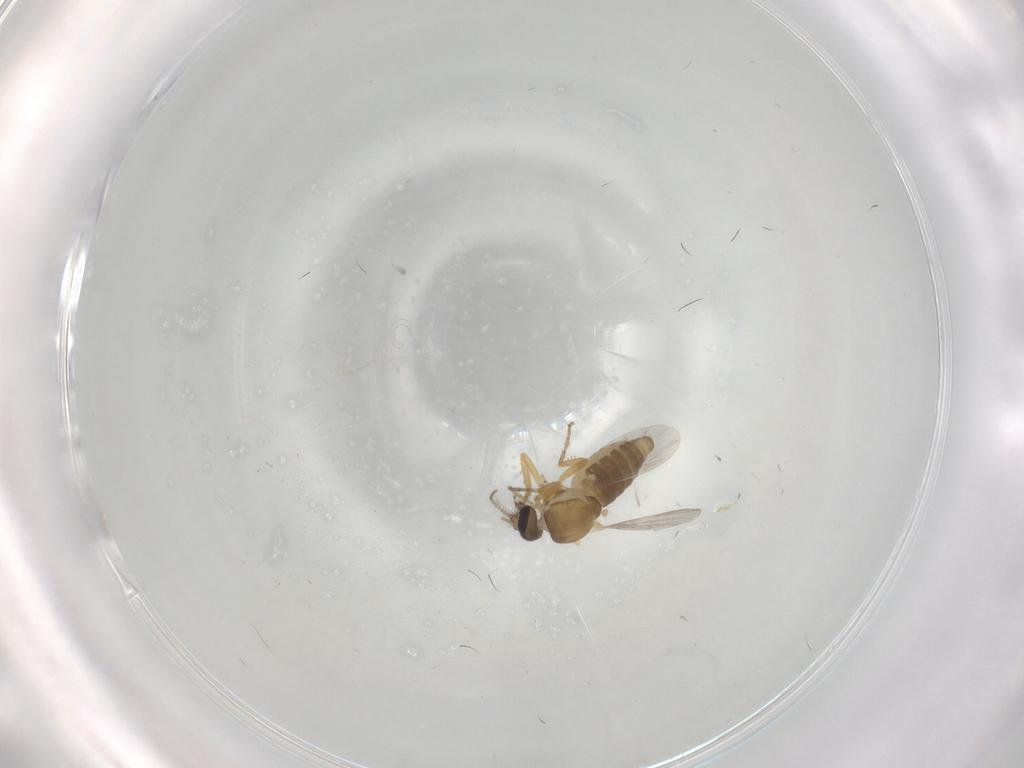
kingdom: Animalia
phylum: Arthropoda
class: Insecta
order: Diptera
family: Ceratopogonidae
